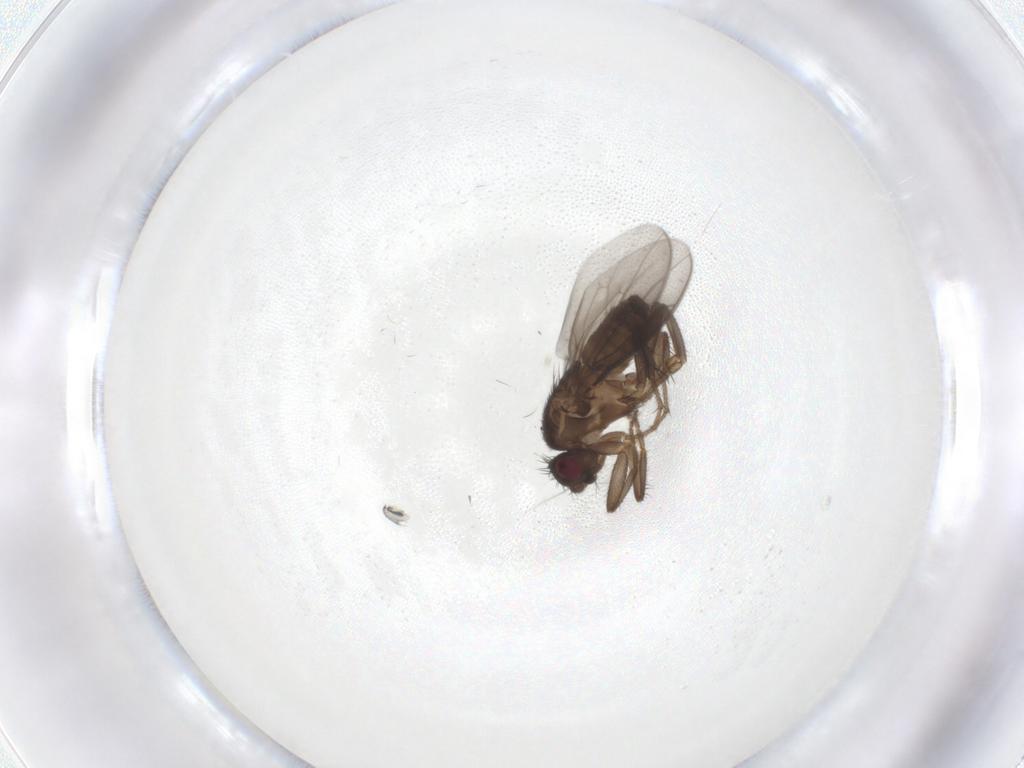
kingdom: Animalia
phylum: Arthropoda
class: Insecta
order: Diptera
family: Sphaeroceridae
